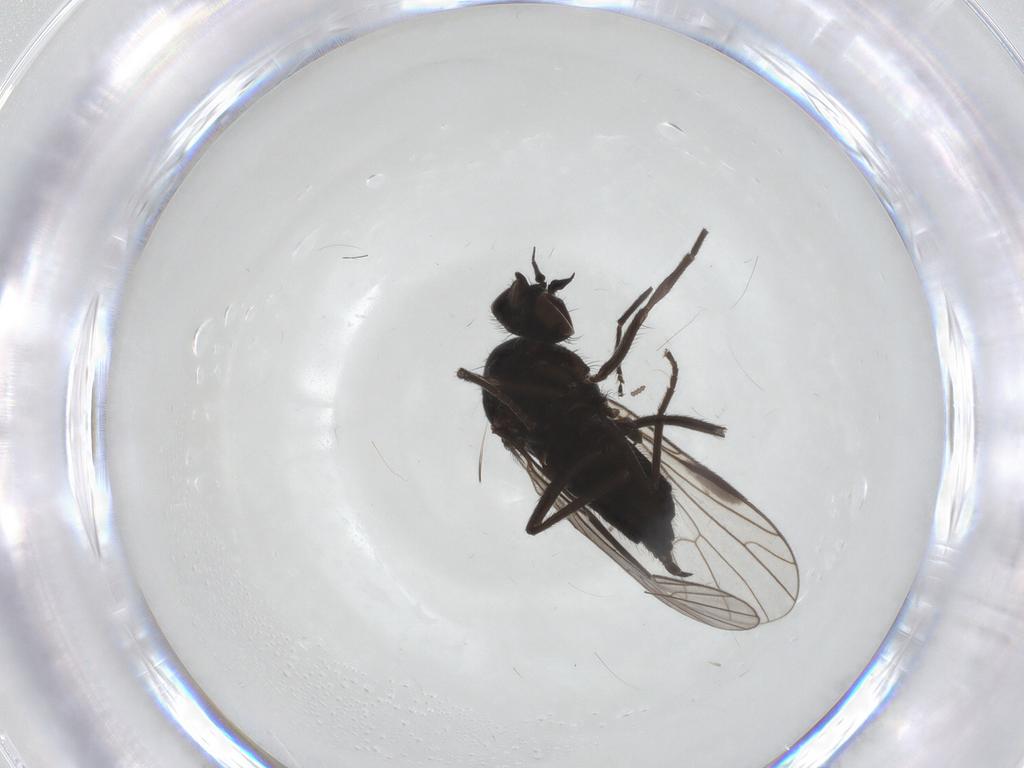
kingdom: Animalia
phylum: Arthropoda
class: Insecta
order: Diptera
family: Empididae
